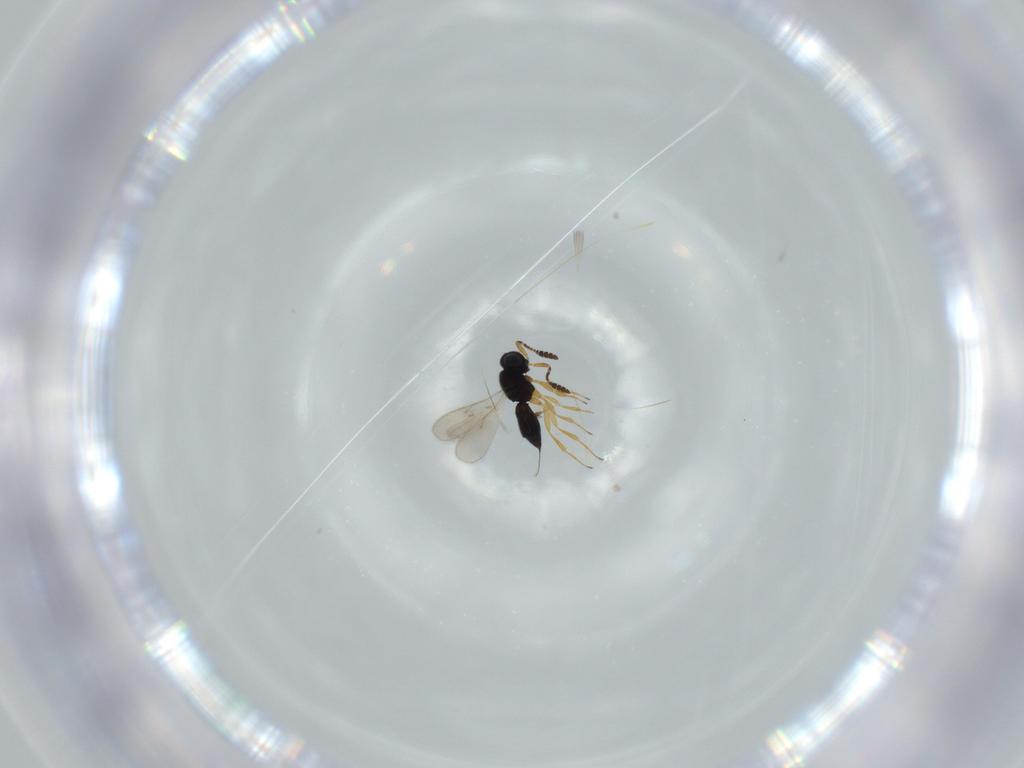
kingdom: Animalia
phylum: Arthropoda
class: Insecta
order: Hymenoptera
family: Scelionidae
